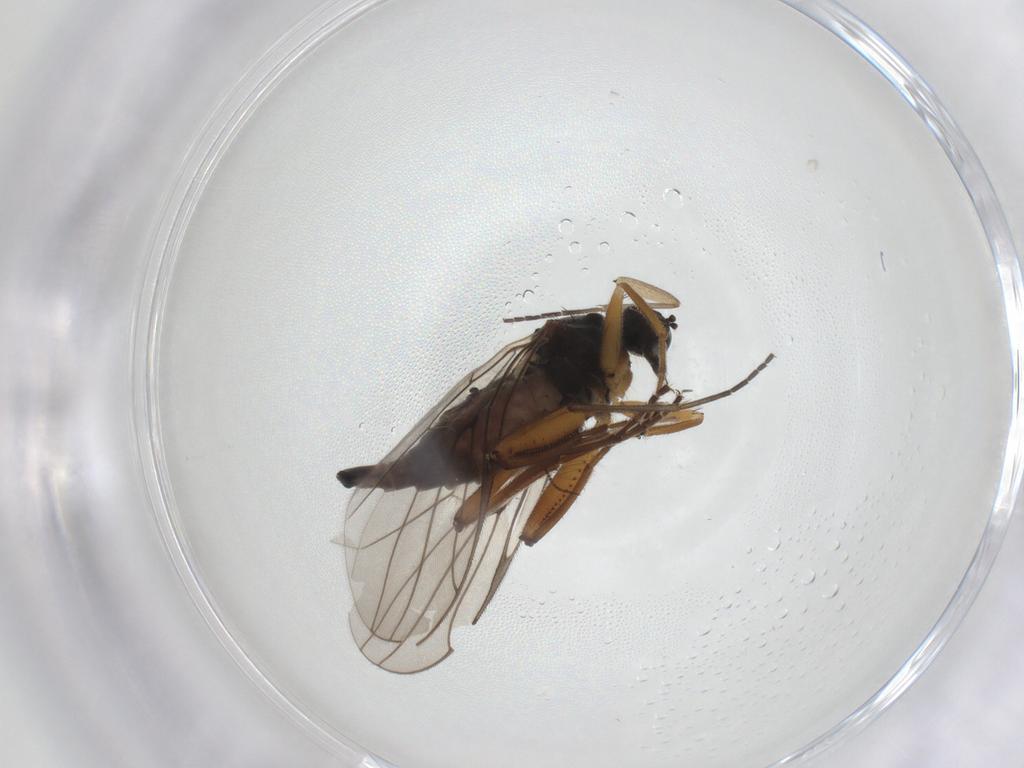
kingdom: Animalia
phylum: Arthropoda
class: Insecta
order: Diptera
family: Hybotidae
